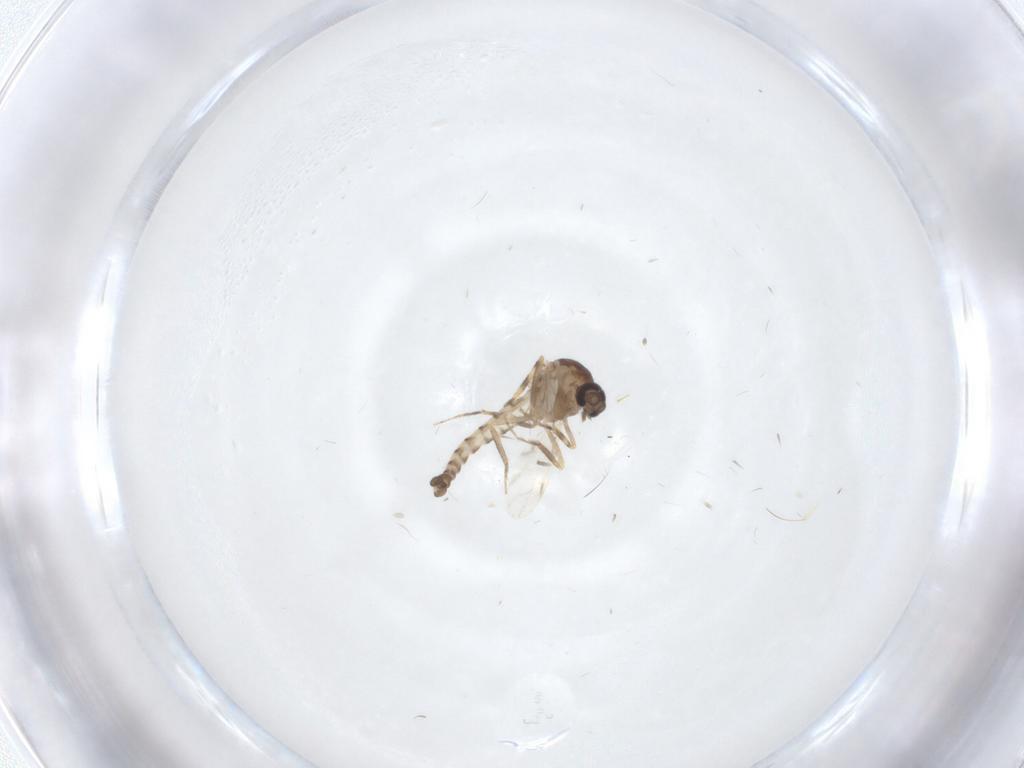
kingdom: Animalia
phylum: Arthropoda
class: Insecta
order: Diptera
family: Ceratopogonidae
